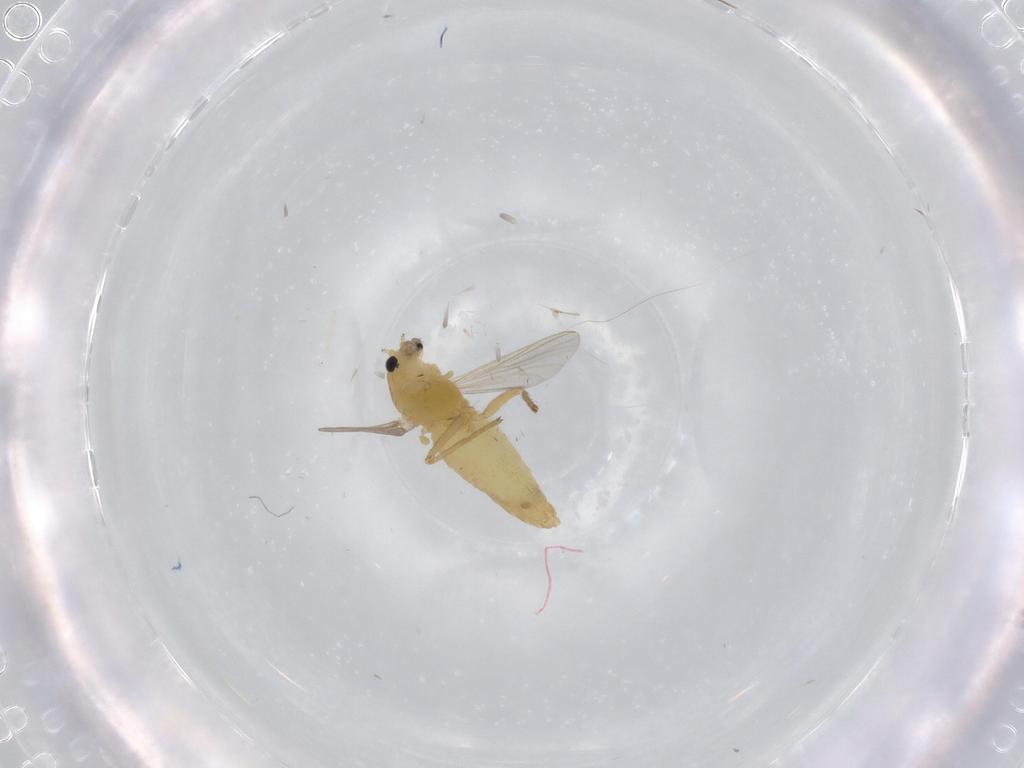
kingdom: Animalia
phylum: Arthropoda
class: Insecta
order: Diptera
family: Chironomidae
